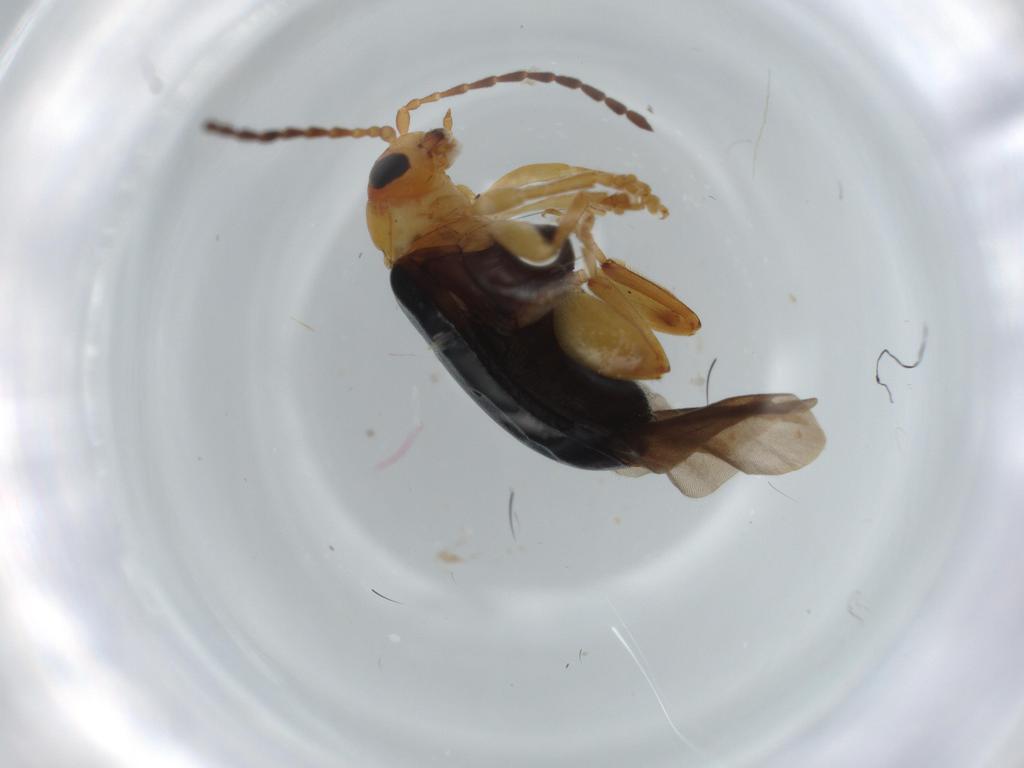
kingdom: Animalia
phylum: Arthropoda
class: Insecta
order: Coleoptera
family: Chrysomelidae
